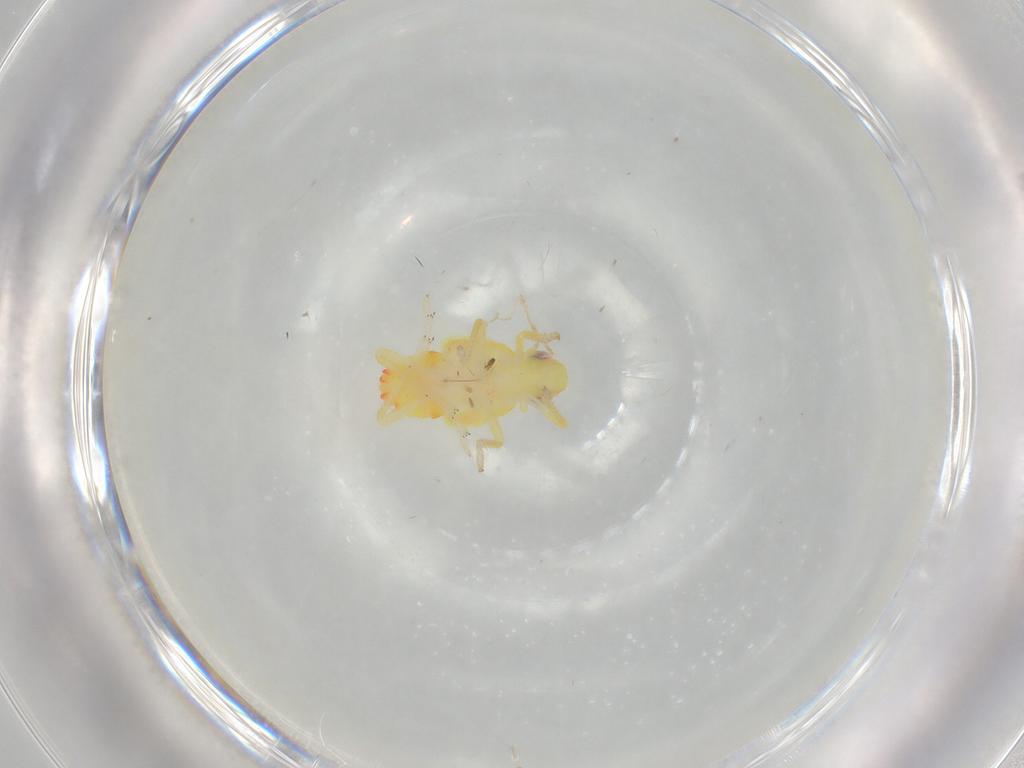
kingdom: Animalia
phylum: Arthropoda
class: Insecta
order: Hemiptera
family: Tropiduchidae
